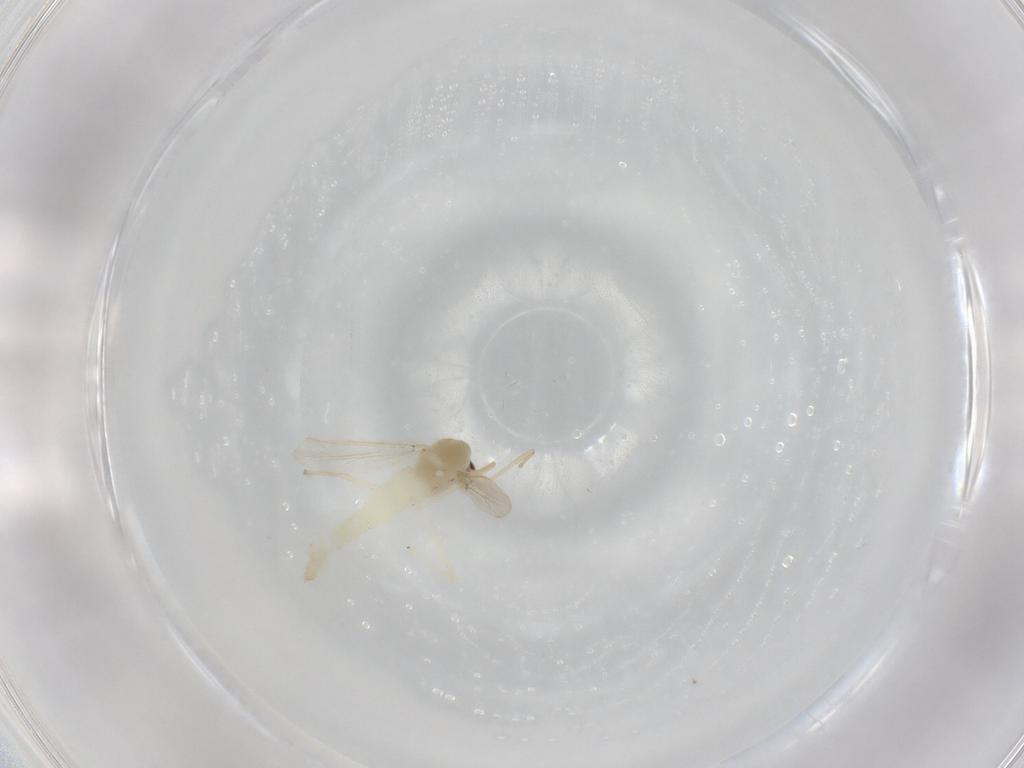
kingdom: Animalia
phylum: Arthropoda
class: Insecta
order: Diptera
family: Chironomidae
